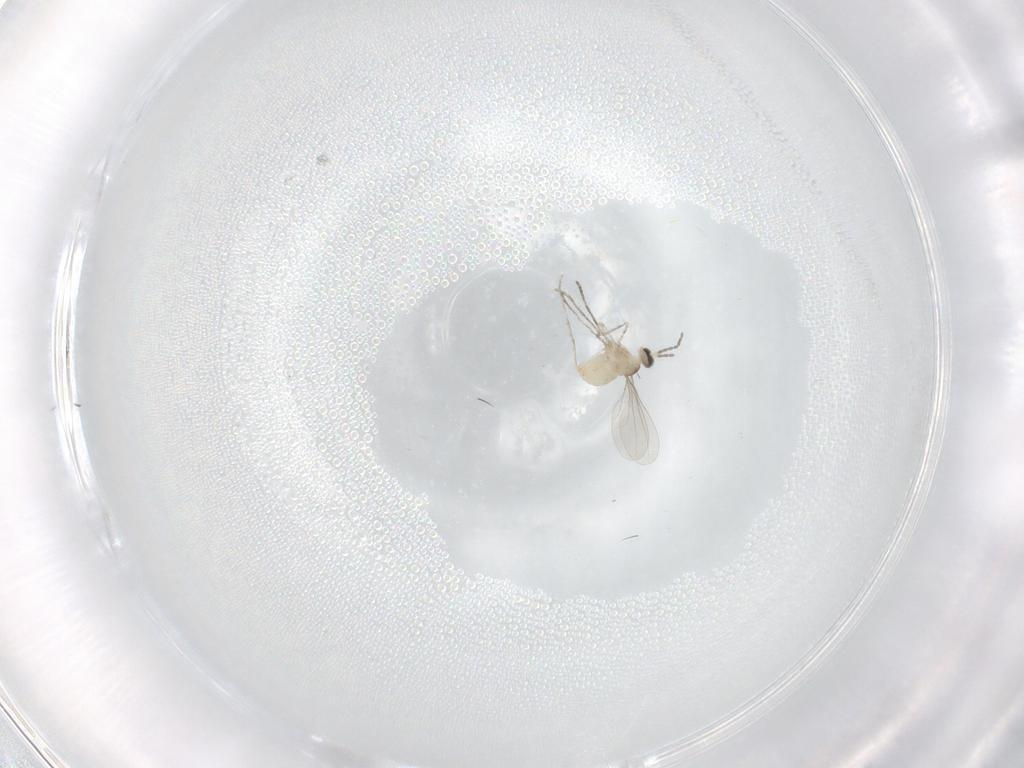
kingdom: Animalia
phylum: Arthropoda
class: Insecta
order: Diptera
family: Cecidomyiidae
